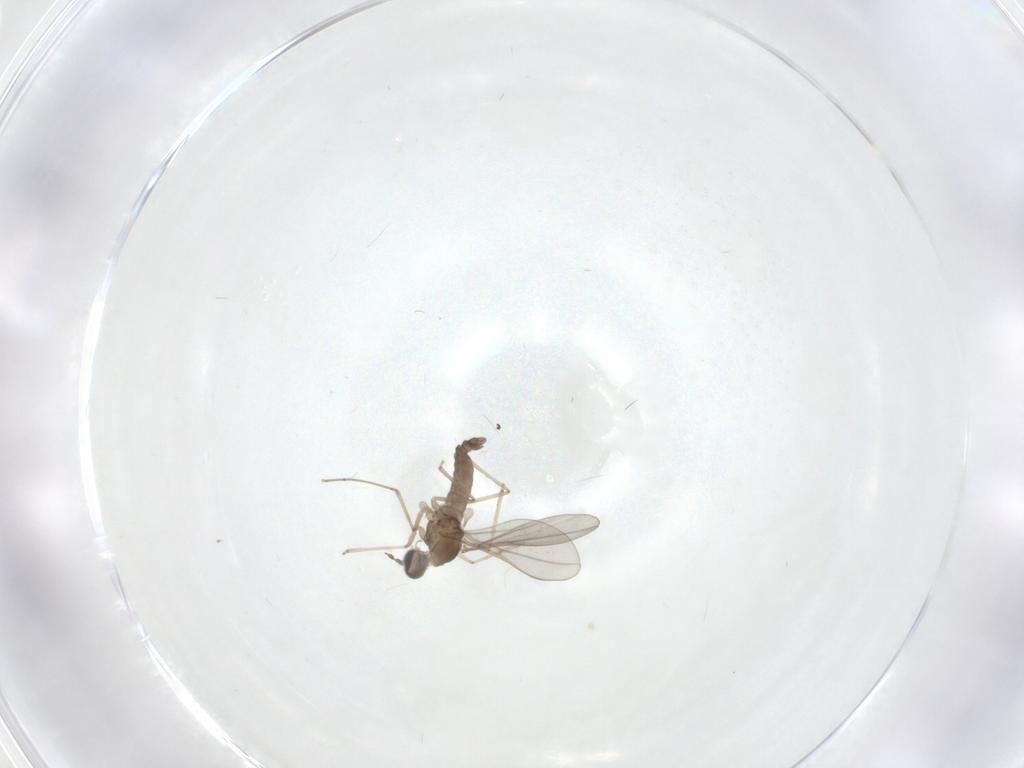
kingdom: Animalia
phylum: Arthropoda
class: Insecta
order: Diptera
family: Cecidomyiidae
